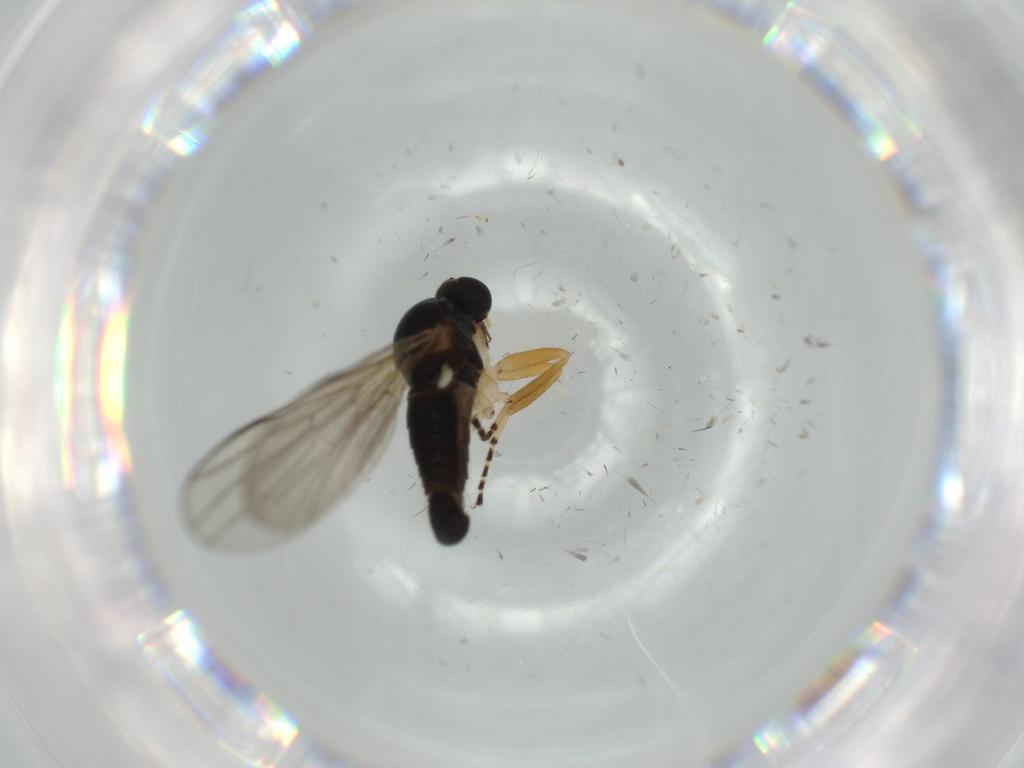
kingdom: Animalia
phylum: Arthropoda
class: Insecta
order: Diptera
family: Hybotidae
